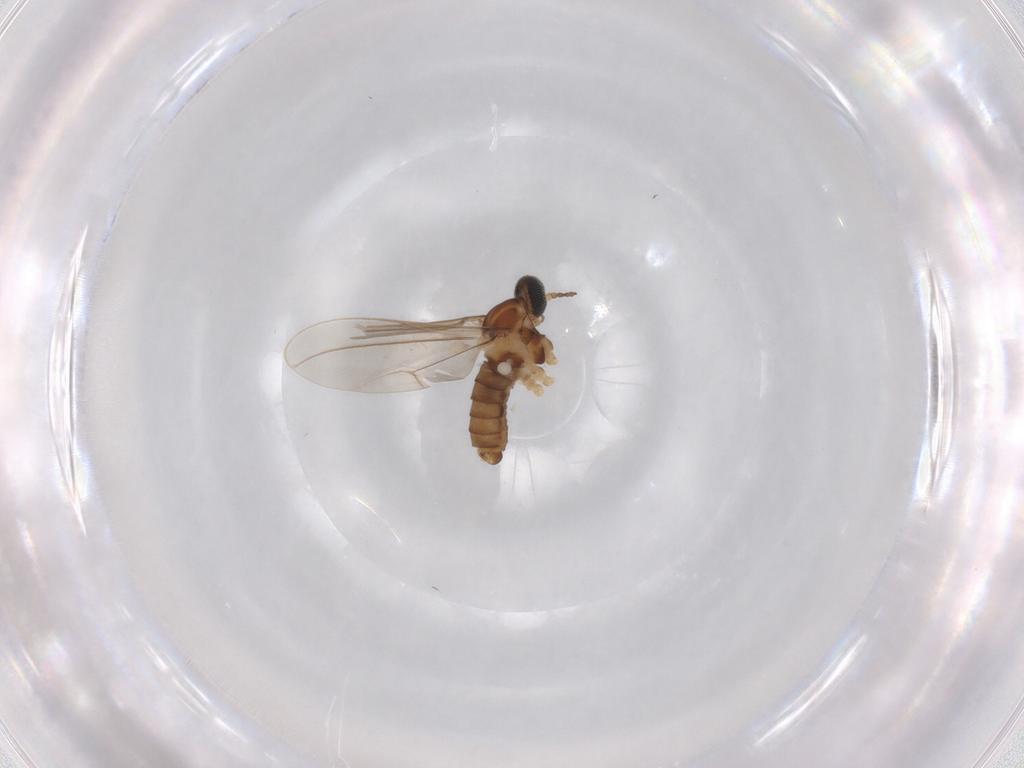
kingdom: Animalia
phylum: Arthropoda
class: Insecta
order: Diptera
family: Cecidomyiidae
